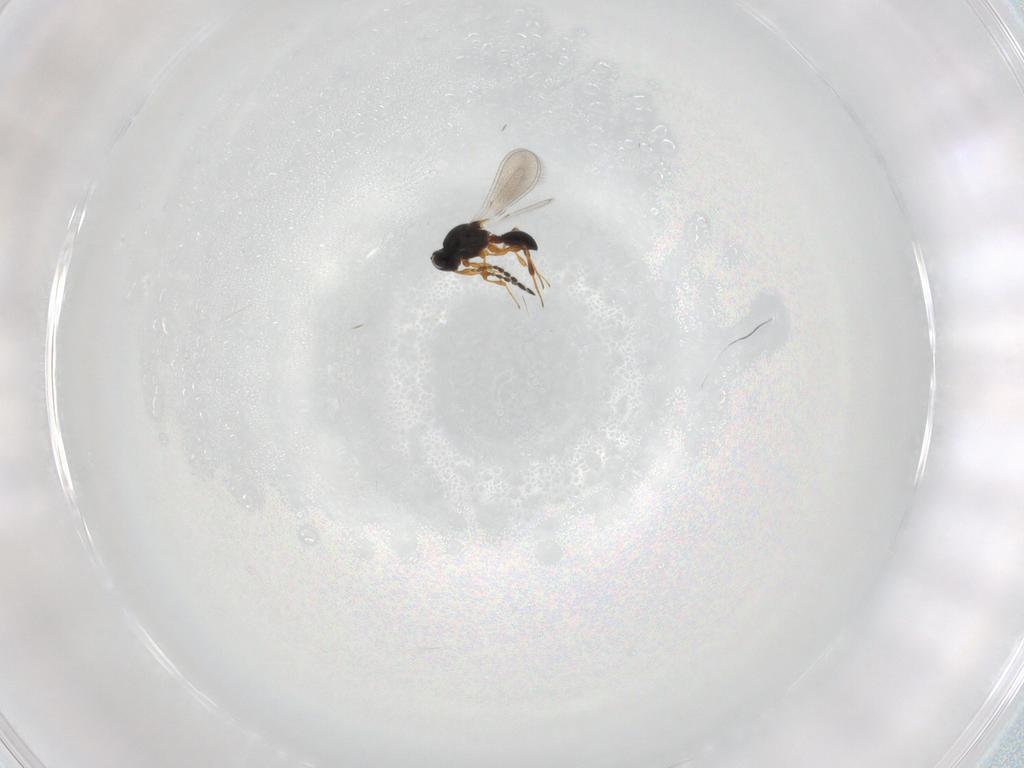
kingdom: Animalia
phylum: Arthropoda
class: Insecta
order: Hymenoptera
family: Platygastridae
